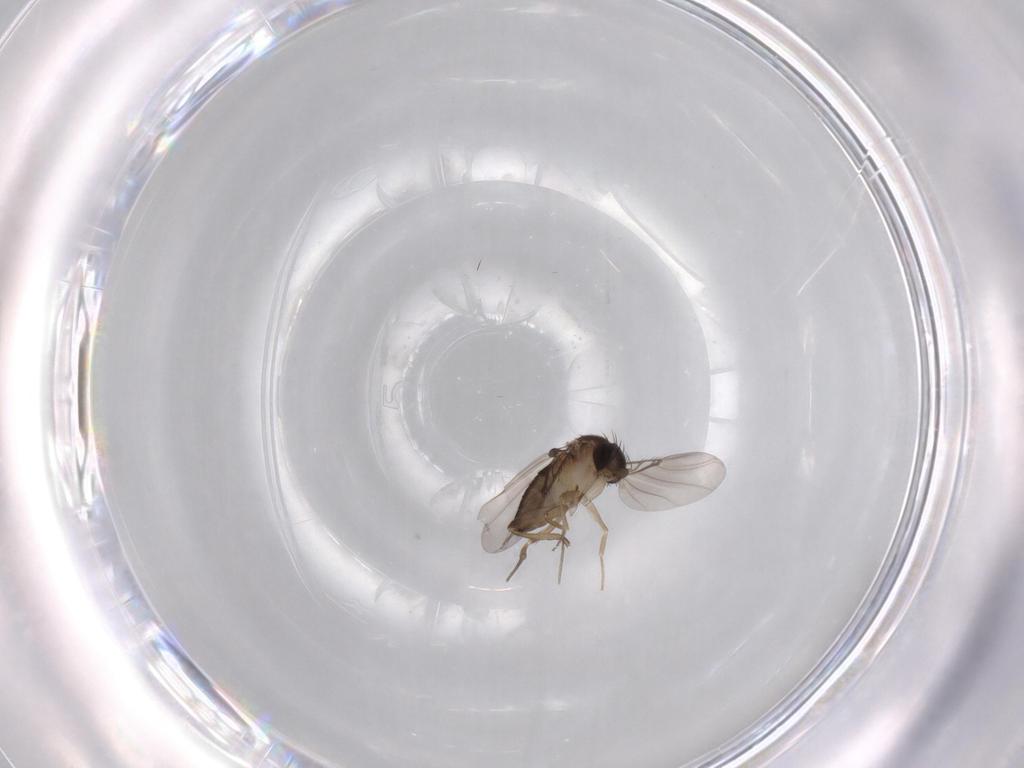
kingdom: Animalia
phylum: Arthropoda
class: Insecta
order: Diptera
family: Phoridae
